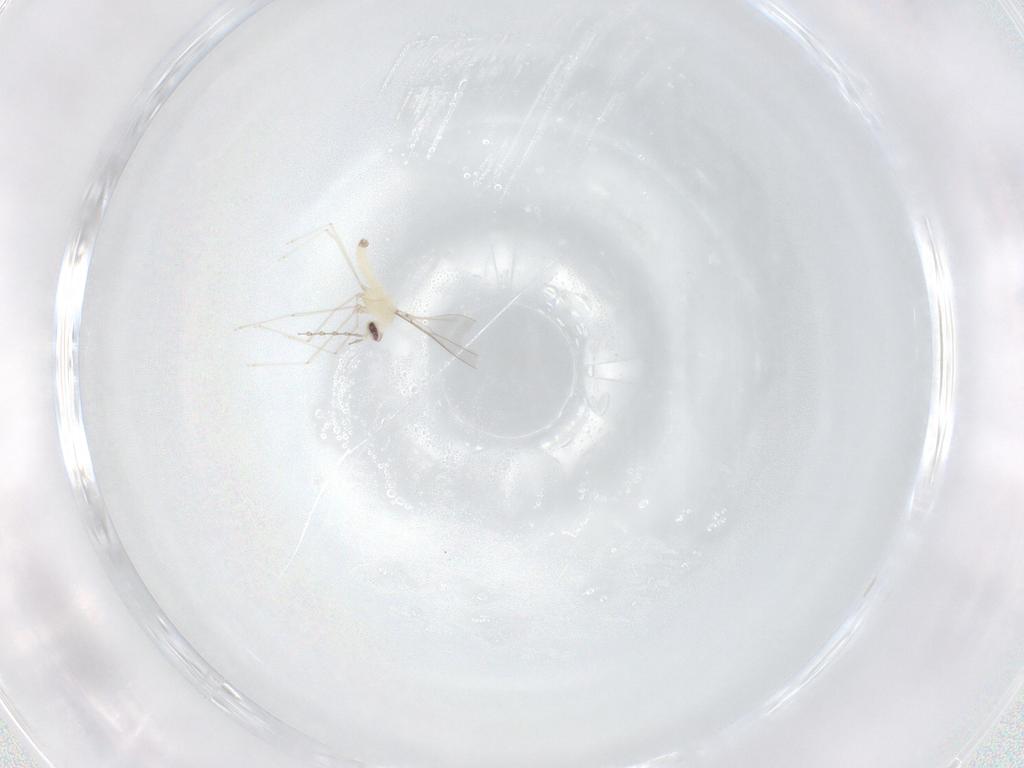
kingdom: Animalia
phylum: Arthropoda
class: Insecta
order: Diptera
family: Cecidomyiidae
